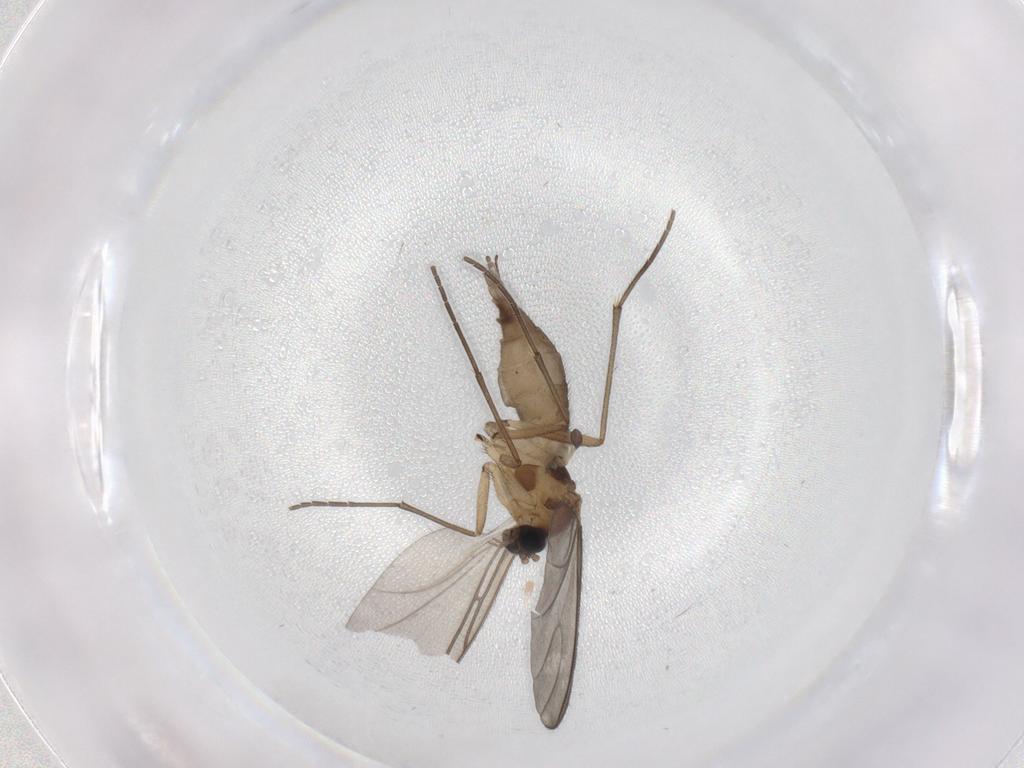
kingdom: Animalia
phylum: Arthropoda
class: Insecta
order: Diptera
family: Sciaridae
